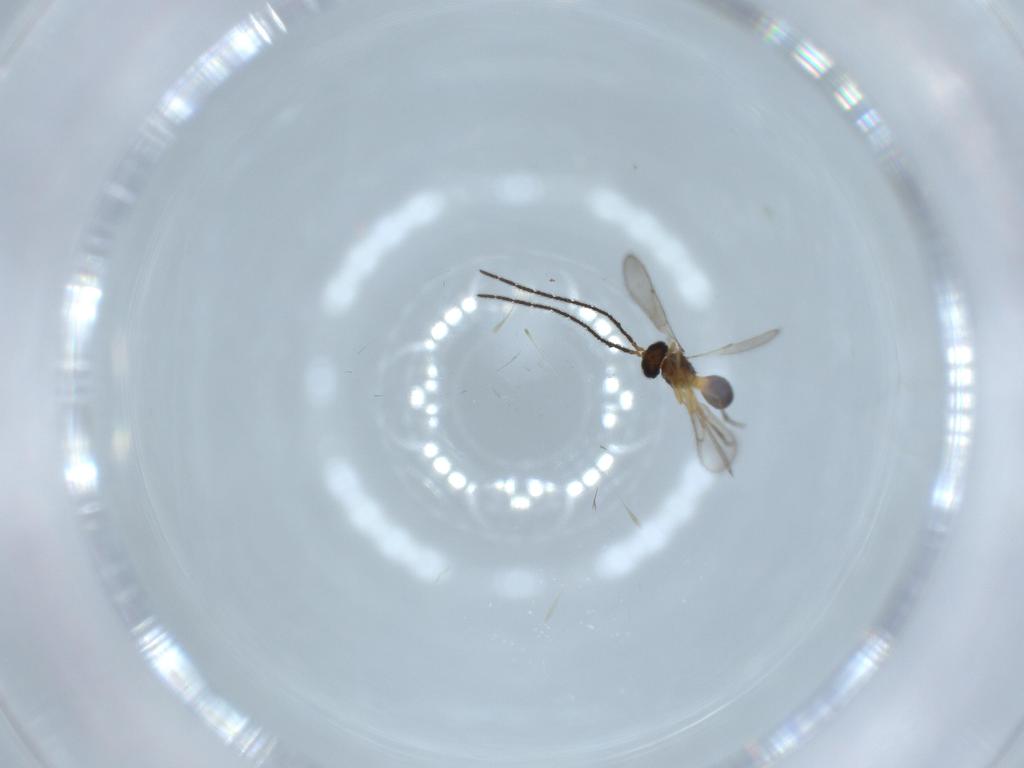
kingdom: Animalia
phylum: Arthropoda
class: Insecta
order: Hymenoptera
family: Scelionidae
